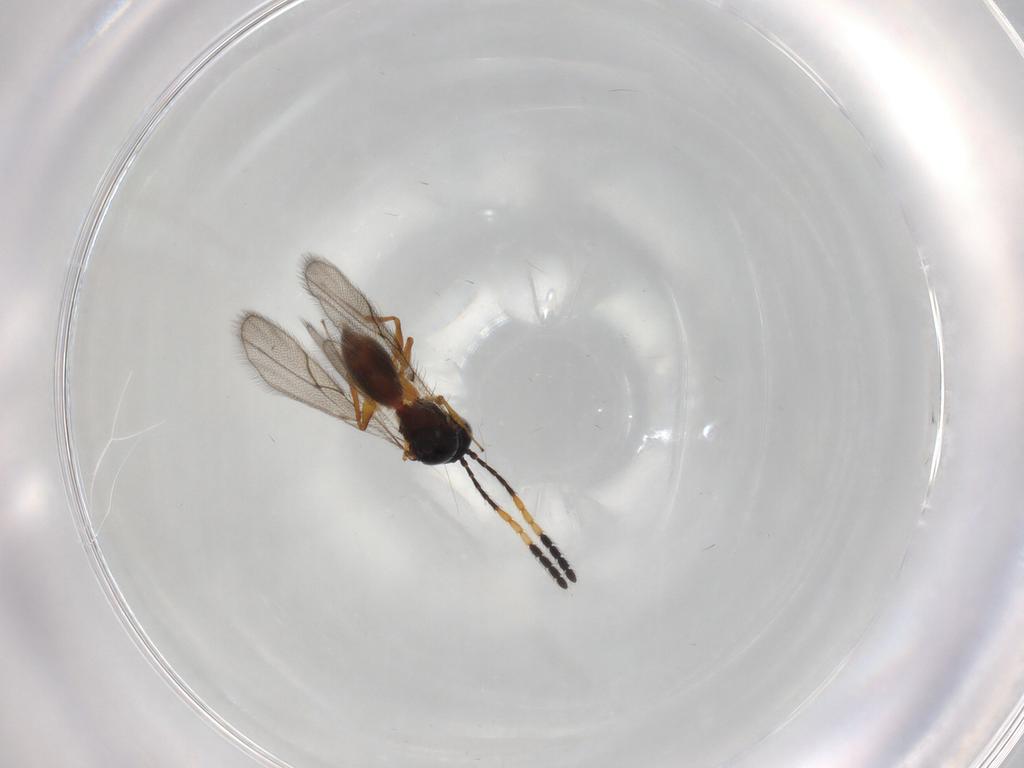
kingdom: Animalia
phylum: Arthropoda
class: Insecta
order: Hymenoptera
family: Figitidae
